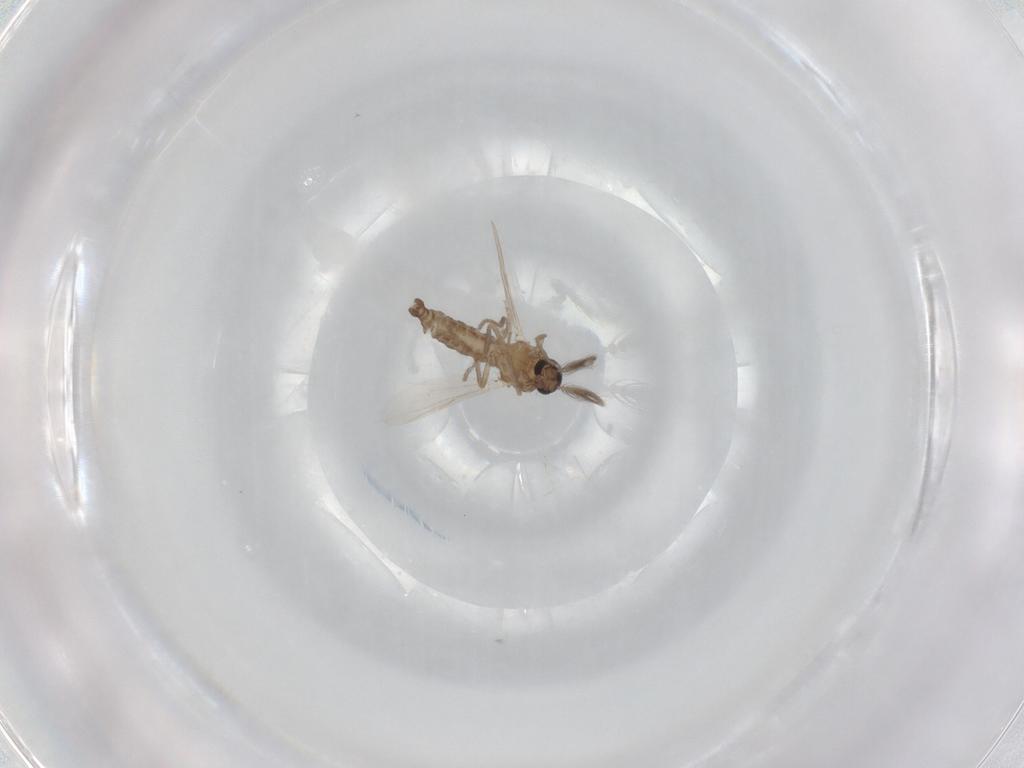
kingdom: Animalia
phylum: Arthropoda
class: Insecta
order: Diptera
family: Ceratopogonidae
